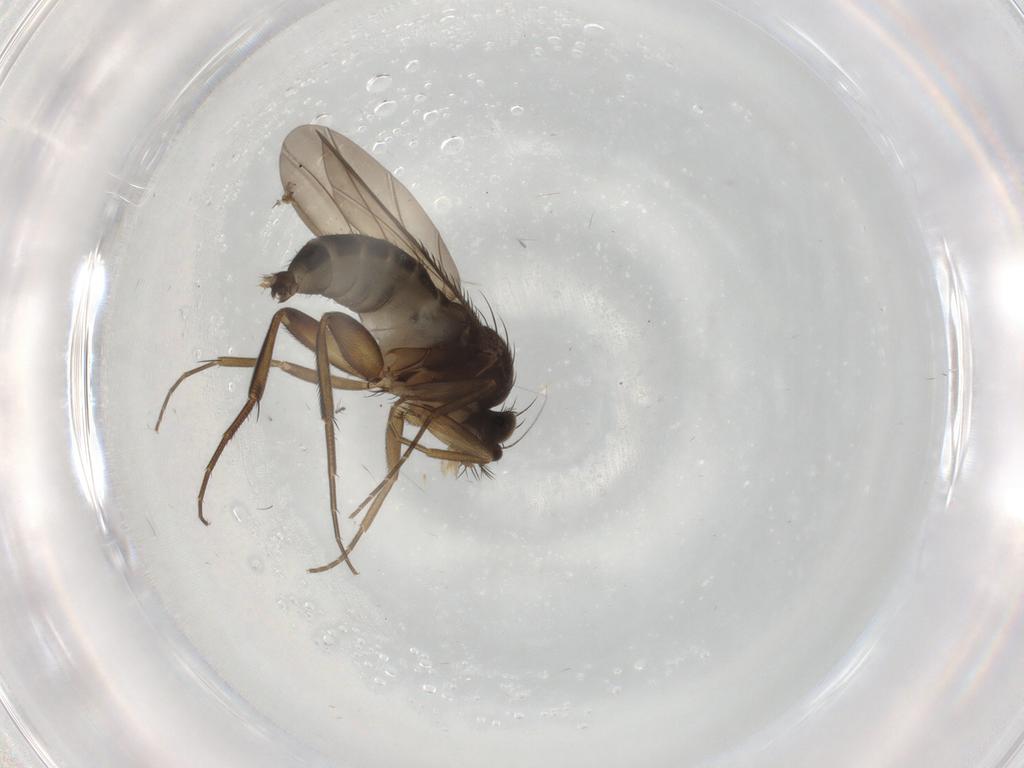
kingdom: Animalia
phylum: Arthropoda
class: Insecta
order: Diptera
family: Phoridae
